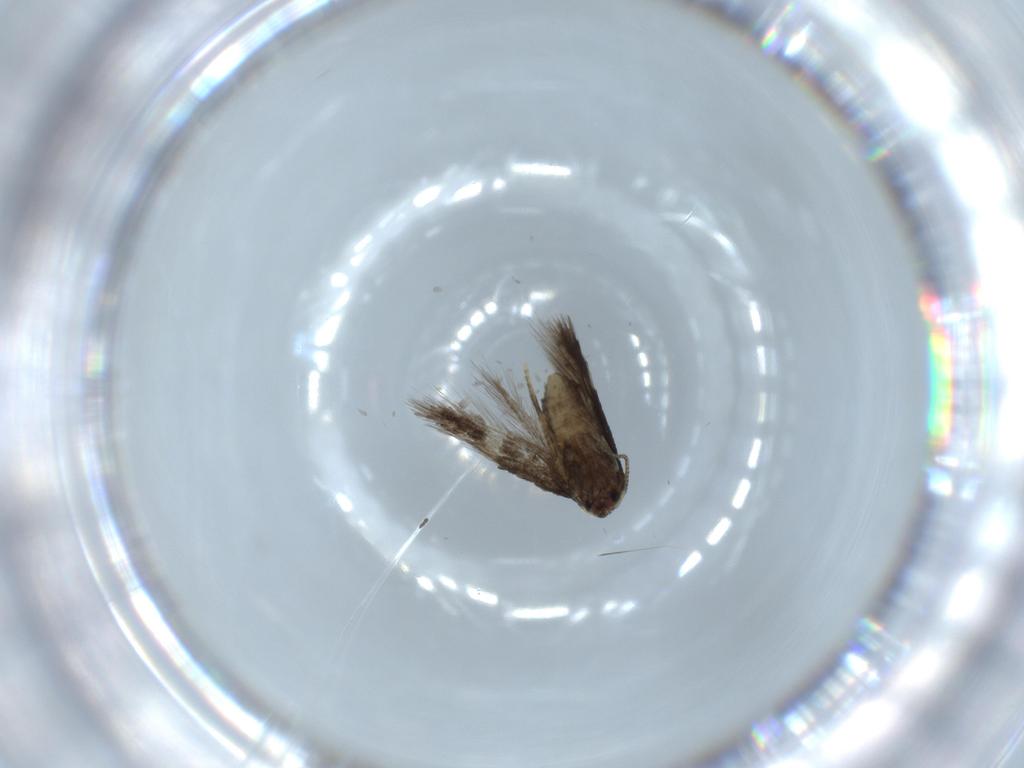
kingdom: Animalia
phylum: Arthropoda
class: Insecta
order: Lepidoptera
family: Nepticulidae
